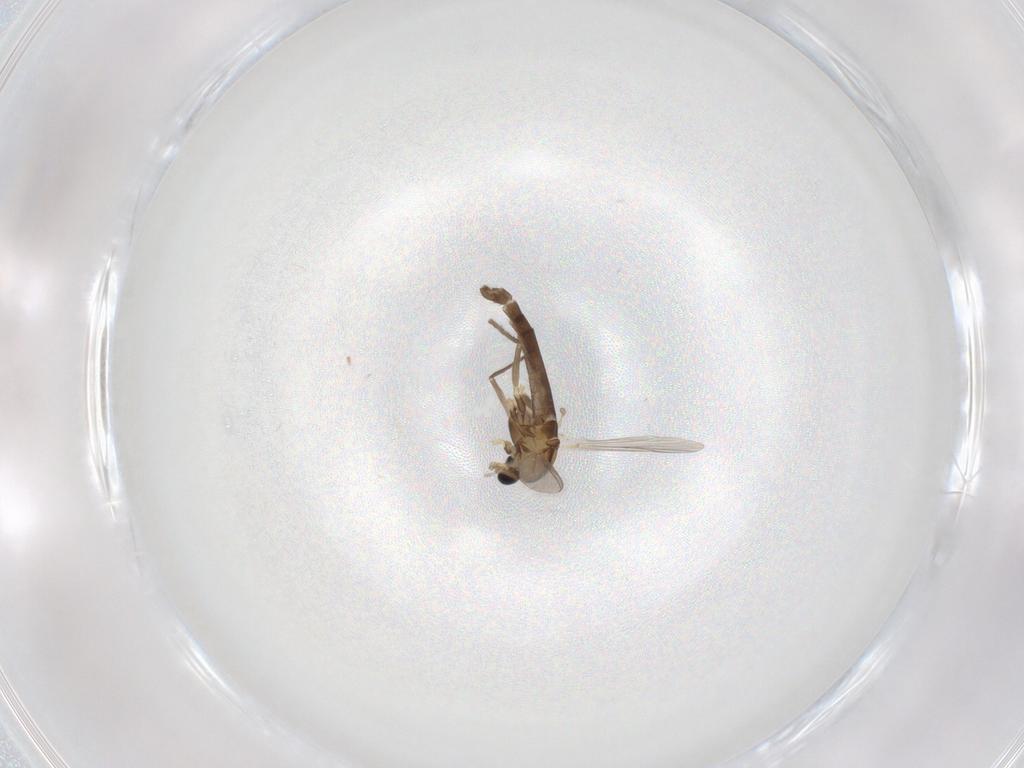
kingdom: Animalia
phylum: Arthropoda
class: Insecta
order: Diptera
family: Chironomidae
